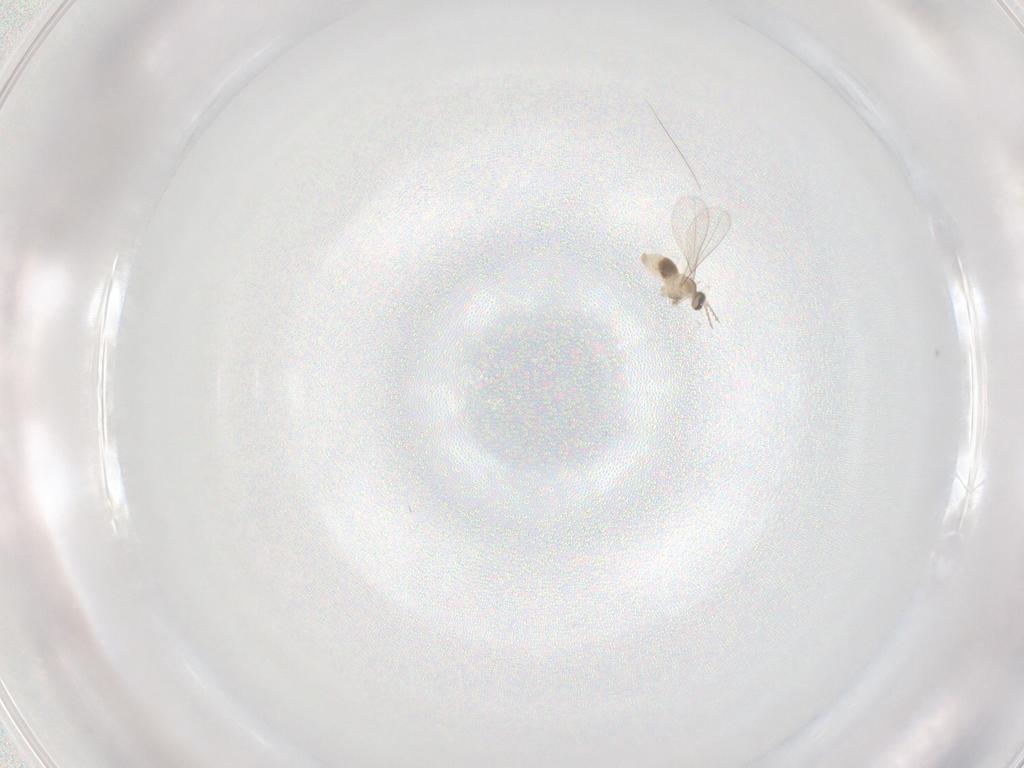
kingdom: Animalia
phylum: Arthropoda
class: Insecta
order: Diptera
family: Cecidomyiidae
